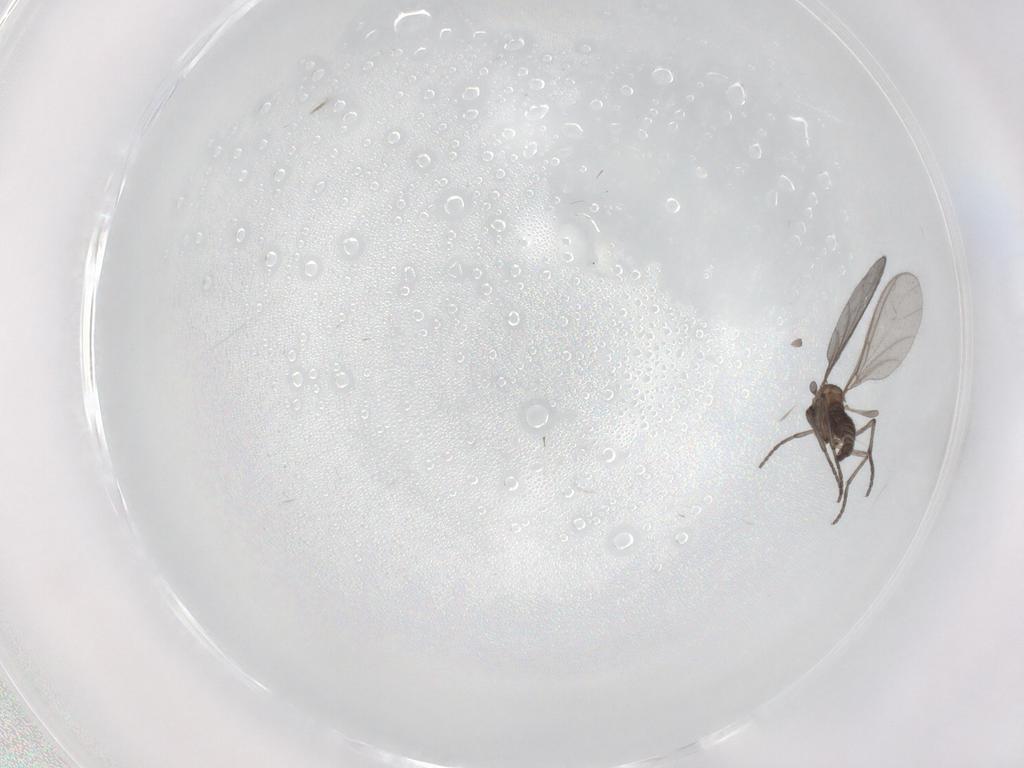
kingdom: Animalia
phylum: Arthropoda
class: Insecta
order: Diptera
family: Sciaridae
